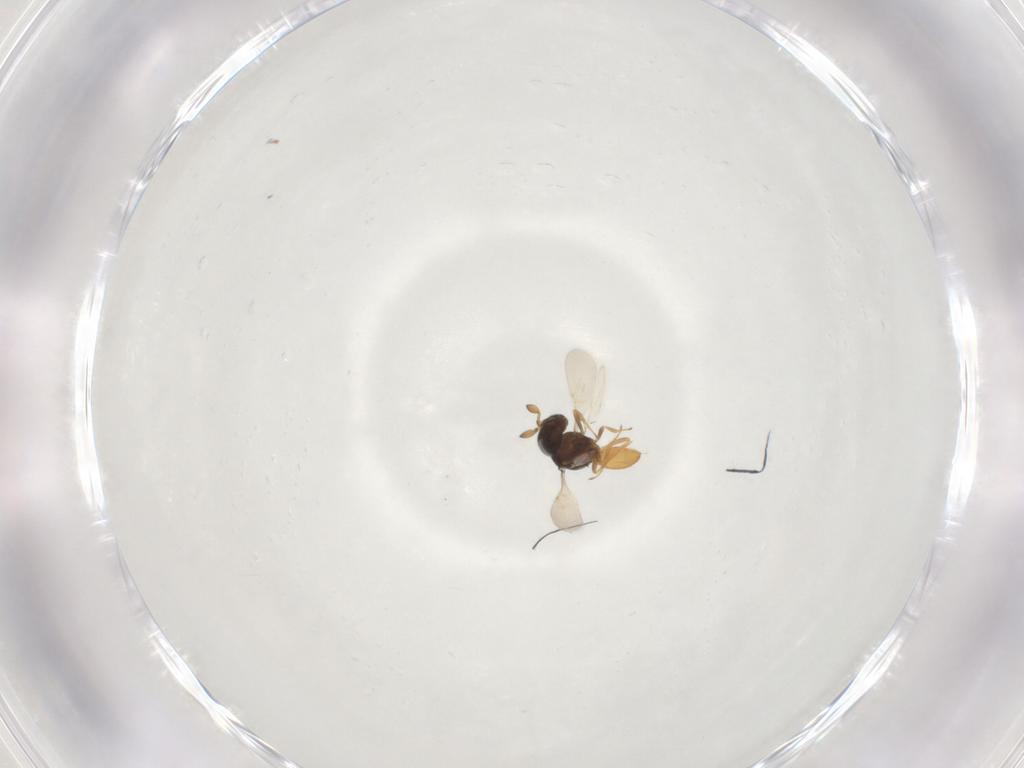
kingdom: Animalia
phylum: Arthropoda
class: Insecta
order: Hymenoptera
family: Scelionidae
